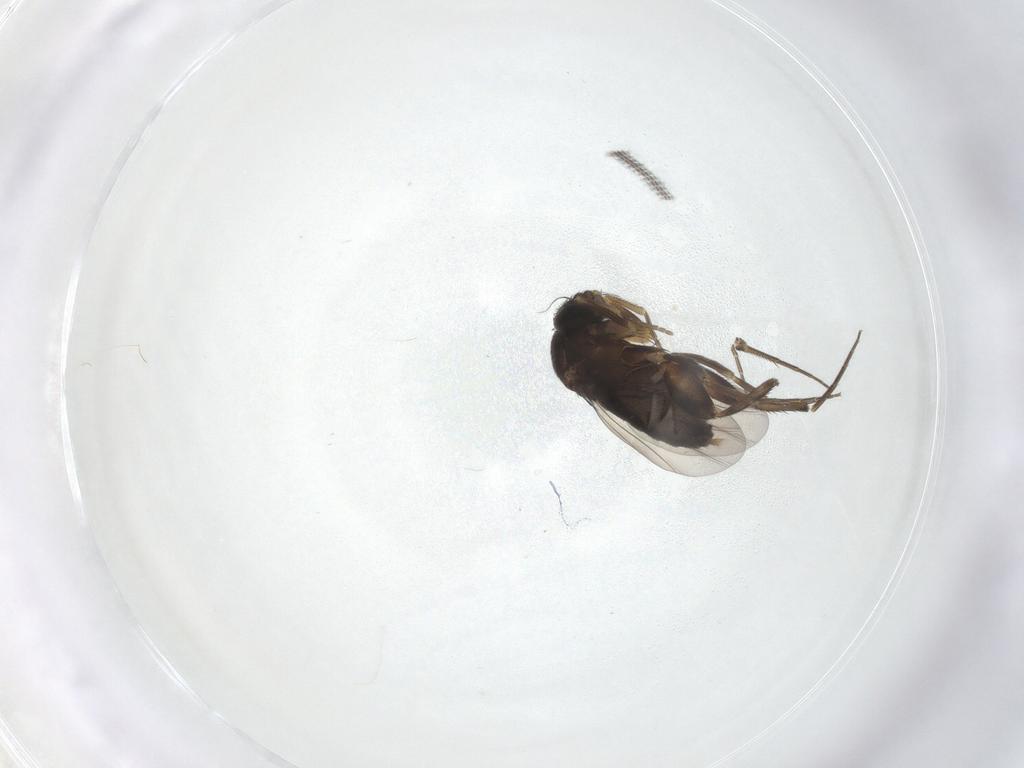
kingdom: Animalia
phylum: Arthropoda
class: Insecta
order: Diptera
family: Phoridae
